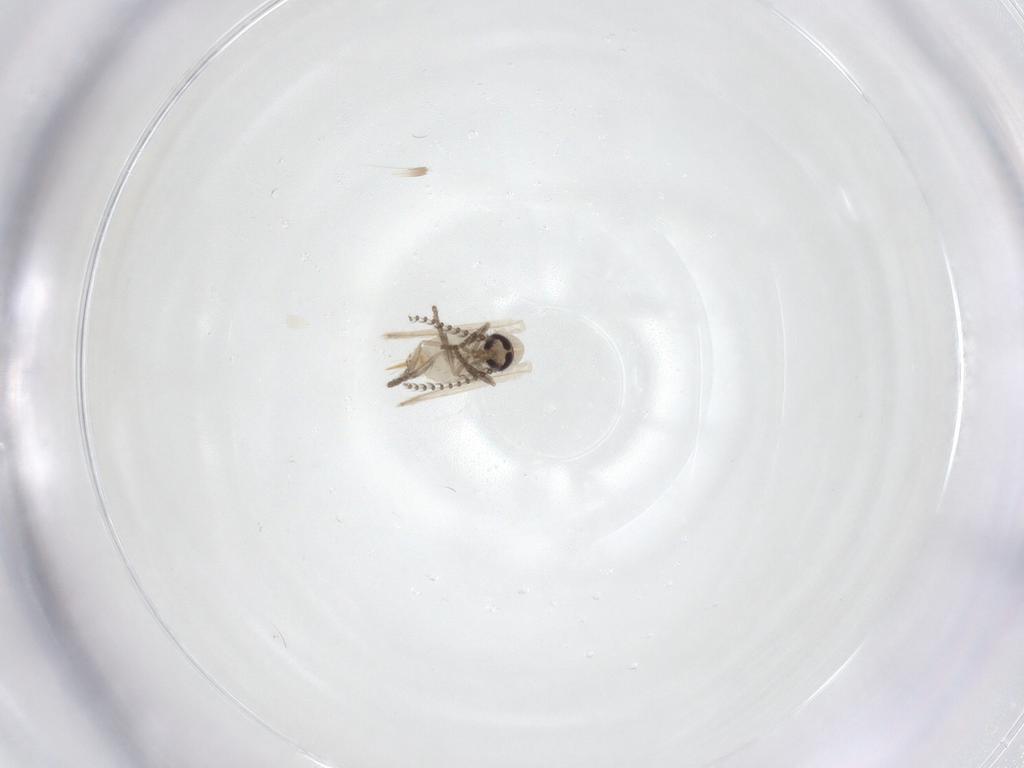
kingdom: Animalia
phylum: Arthropoda
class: Insecta
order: Diptera
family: Psychodidae
